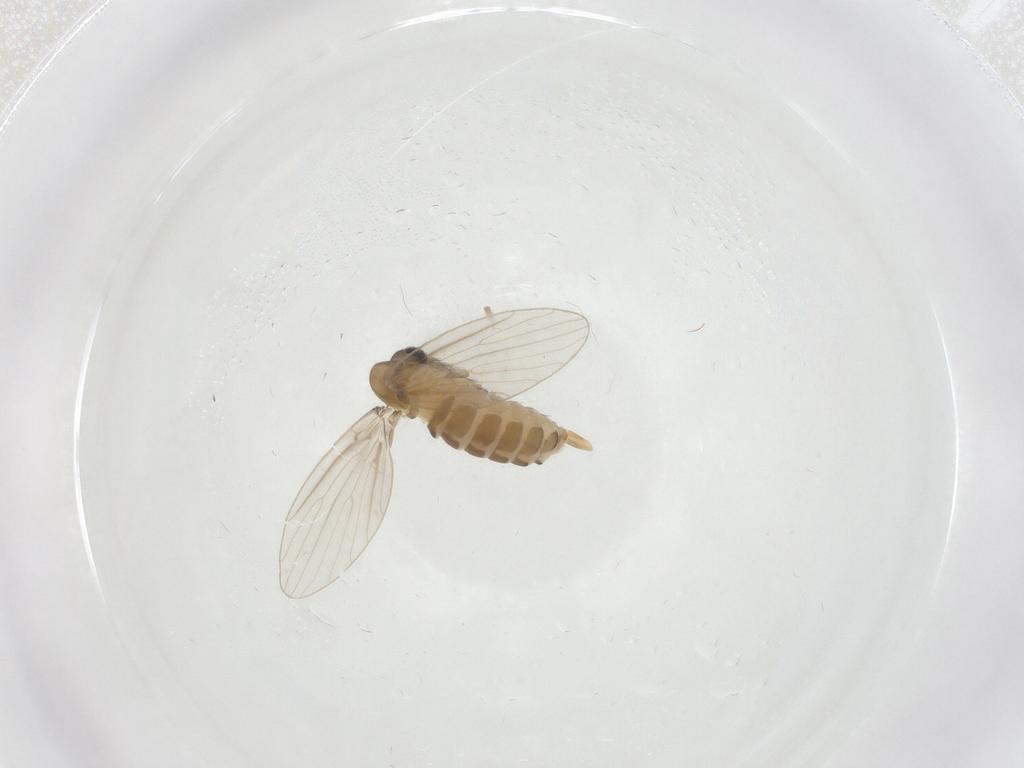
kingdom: Animalia
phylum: Arthropoda
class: Insecta
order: Diptera
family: Psychodidae
